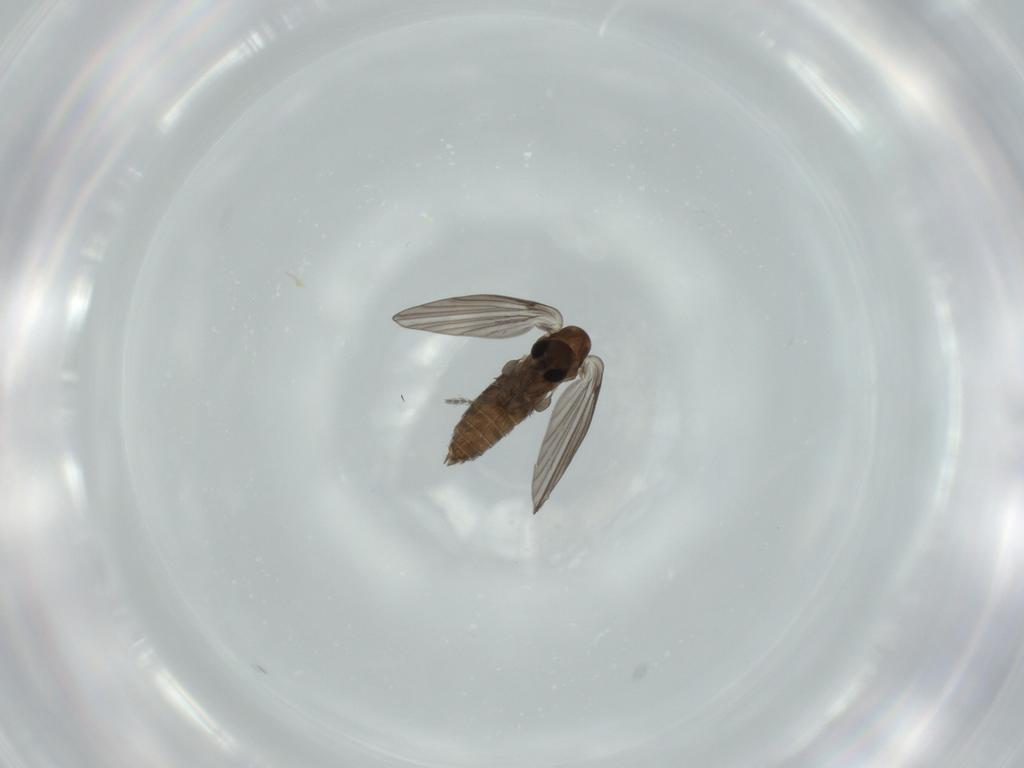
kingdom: Animalia
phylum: Arthropoda
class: Insecta
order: Diptera
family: Psychodidae
